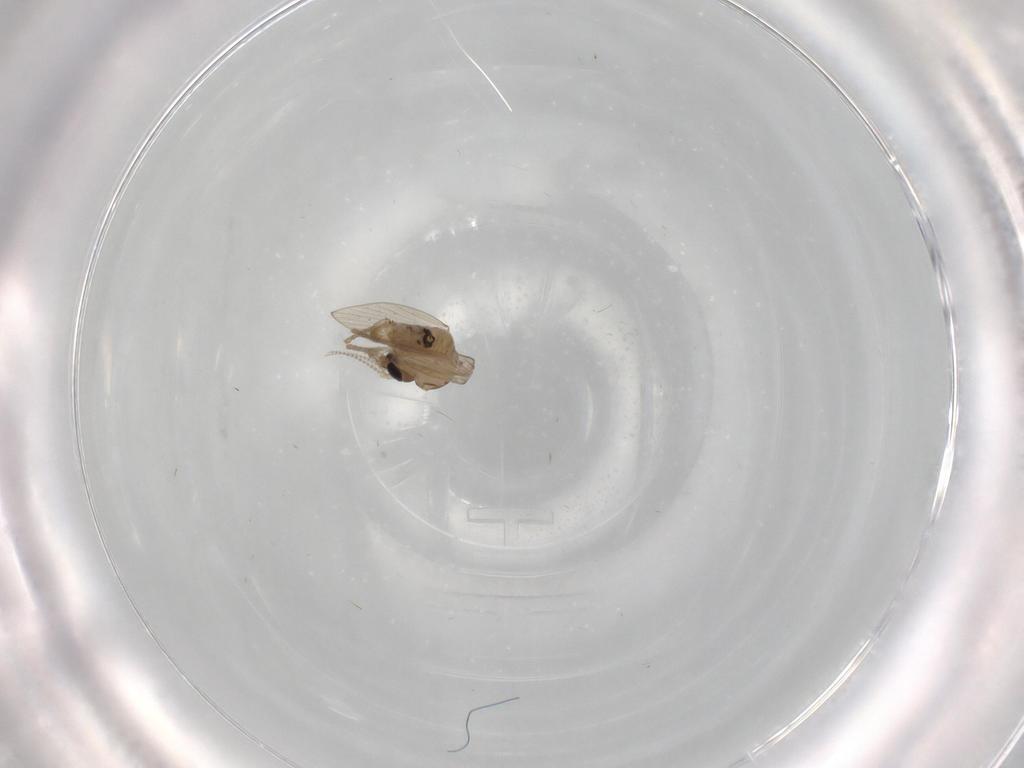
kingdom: Animalia
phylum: Arthropoda
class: Insecta
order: Diptera
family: Psychodidae
